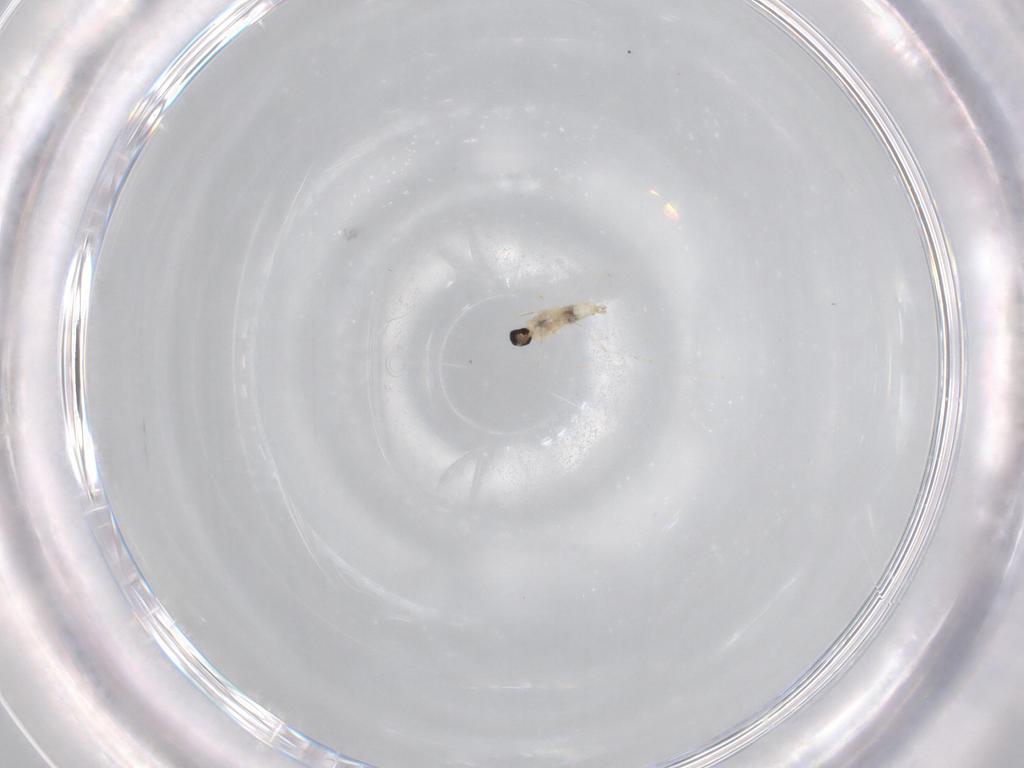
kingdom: Animalia
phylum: Arthropoda
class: Insecta
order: Diptera
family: Cecidomyiidae
